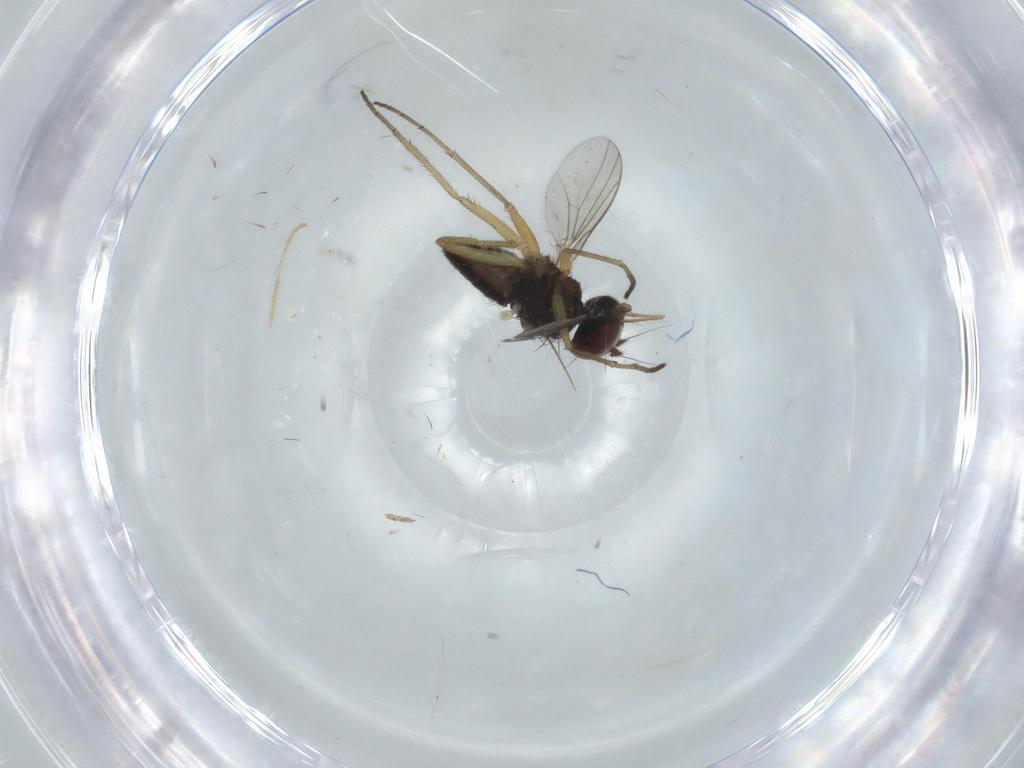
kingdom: Animalia
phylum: Arthropoda
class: Insecta
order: Diptera
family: Dolichopodidae
